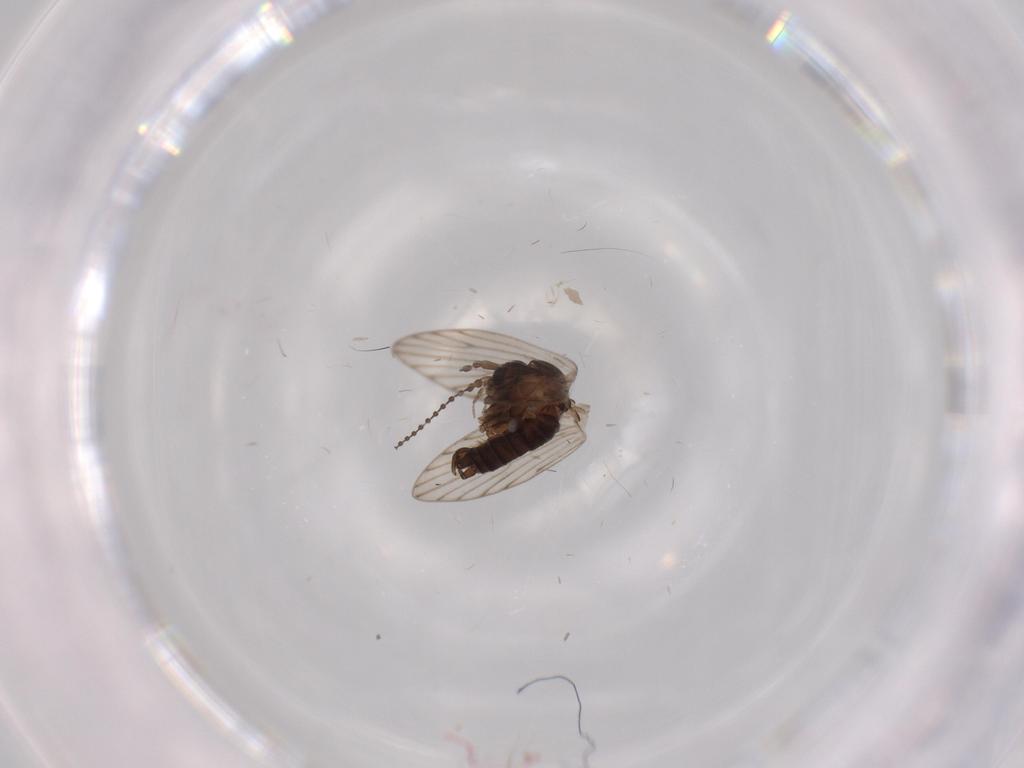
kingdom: Animalia
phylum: Arthropoda
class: Insecta
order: Diptera
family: Psychodidae
